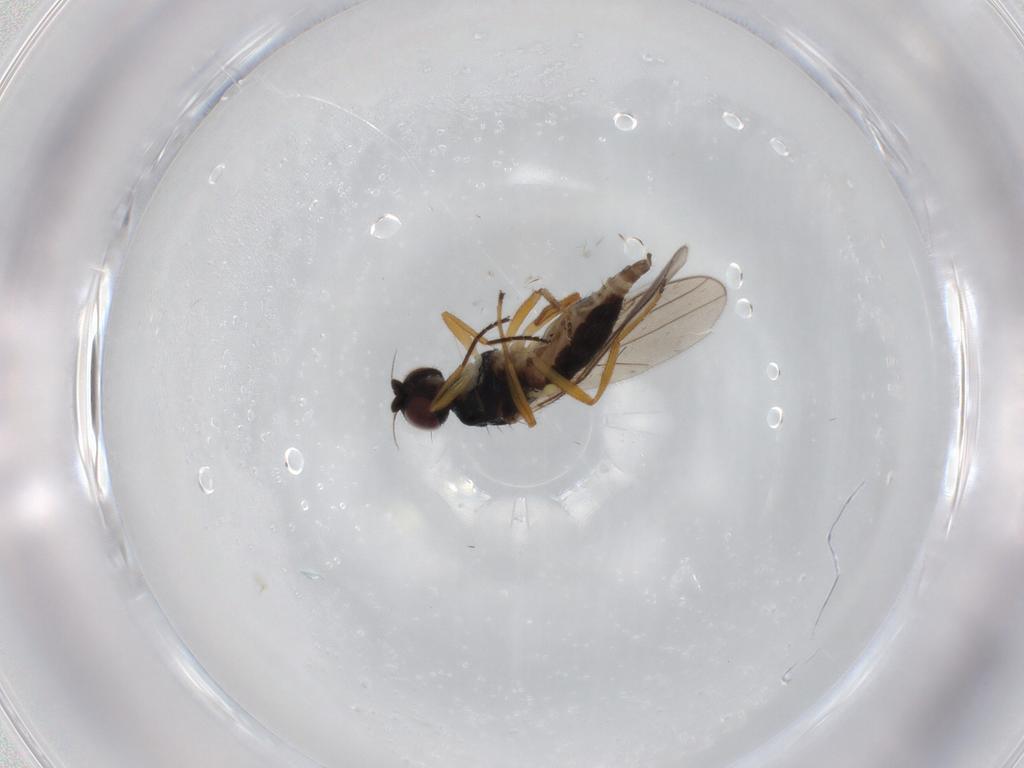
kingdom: Animalia
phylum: Arthropoda
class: Insecta
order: Diptera
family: Chloropidae
